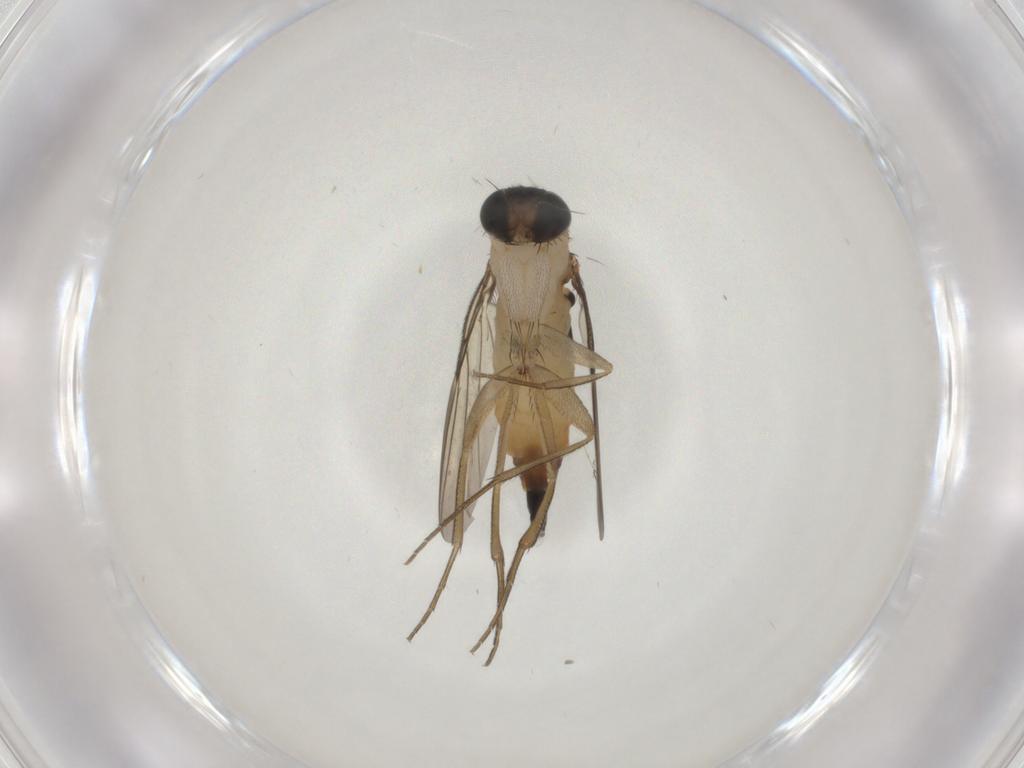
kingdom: Animalia
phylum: Arthropoda
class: Insecta
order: Diptera
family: Phoridae
